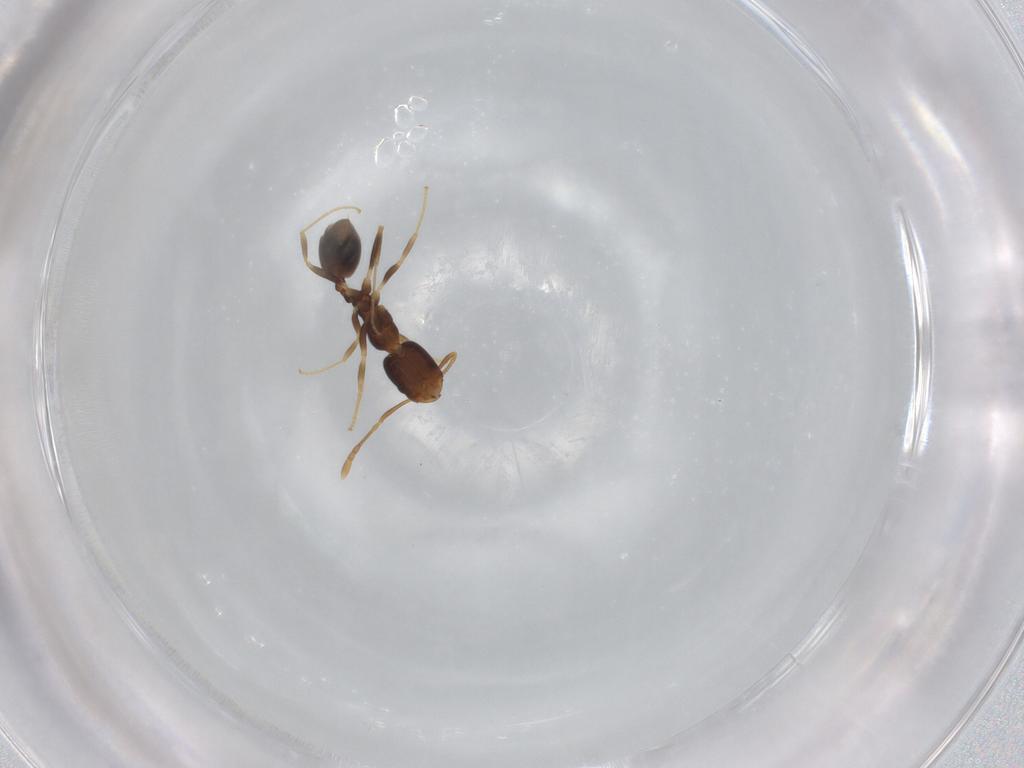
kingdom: Animalia
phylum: Arthropoda
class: Insecta
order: Hymenoptera
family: Formicidae
